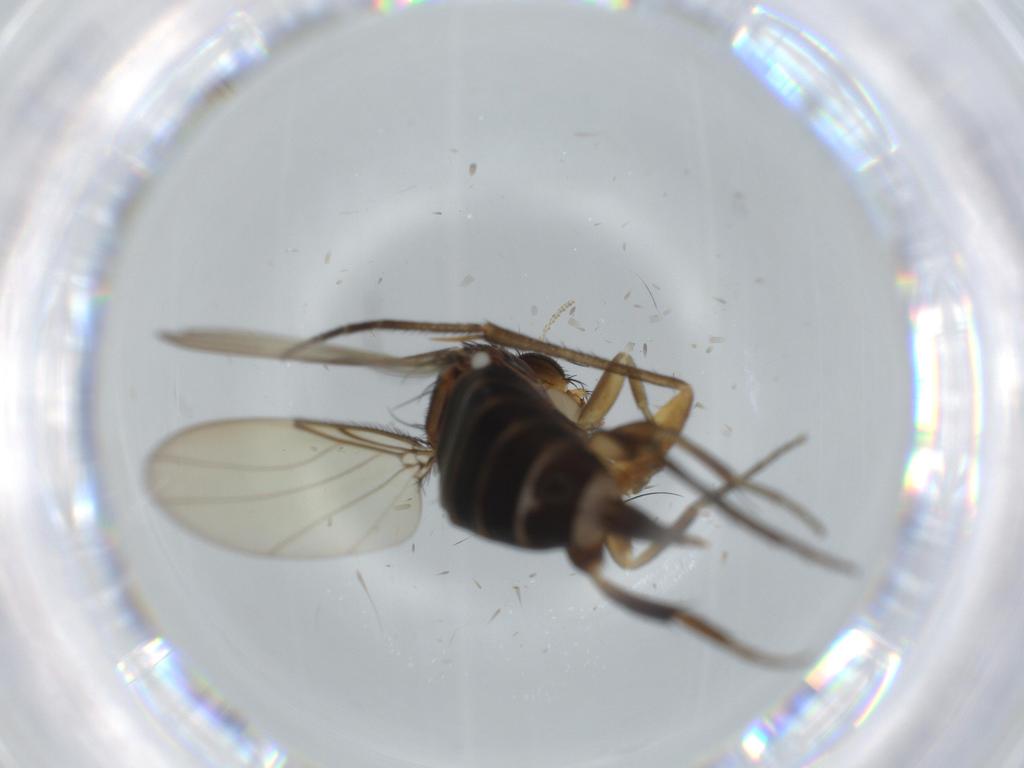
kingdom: Animalia
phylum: Arthropoda
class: Insecta
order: Diptera
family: Phoridae
